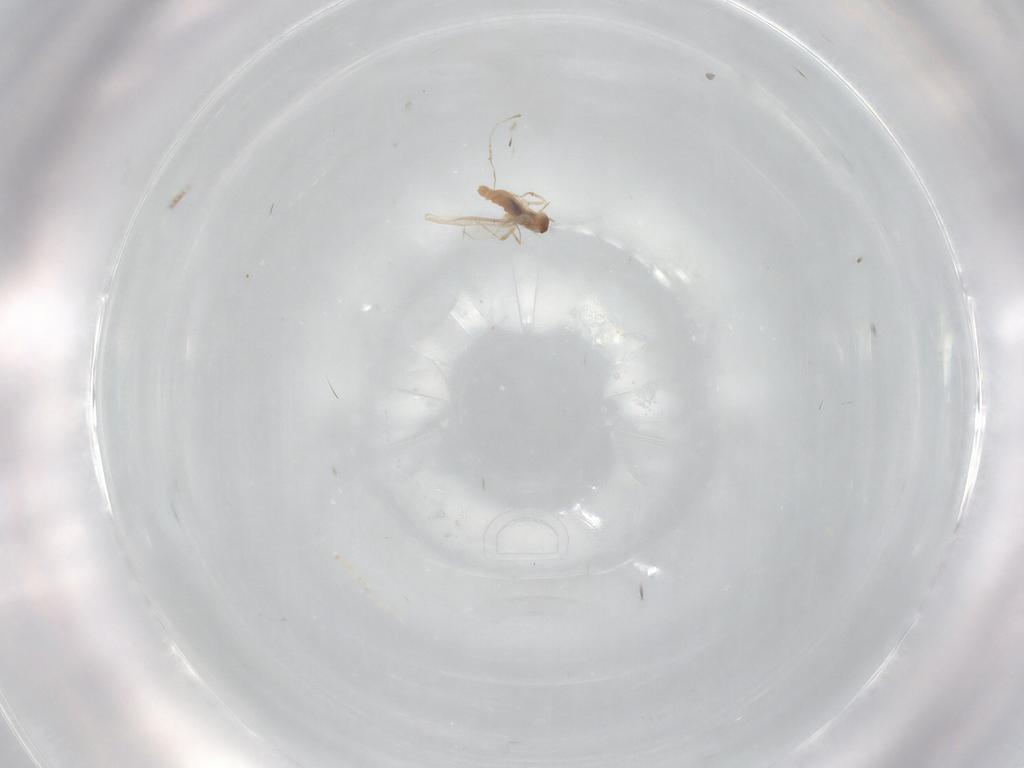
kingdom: Animalia
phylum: Arthropoda
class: Insecta
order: Diptera
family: Cecidomyiidae
